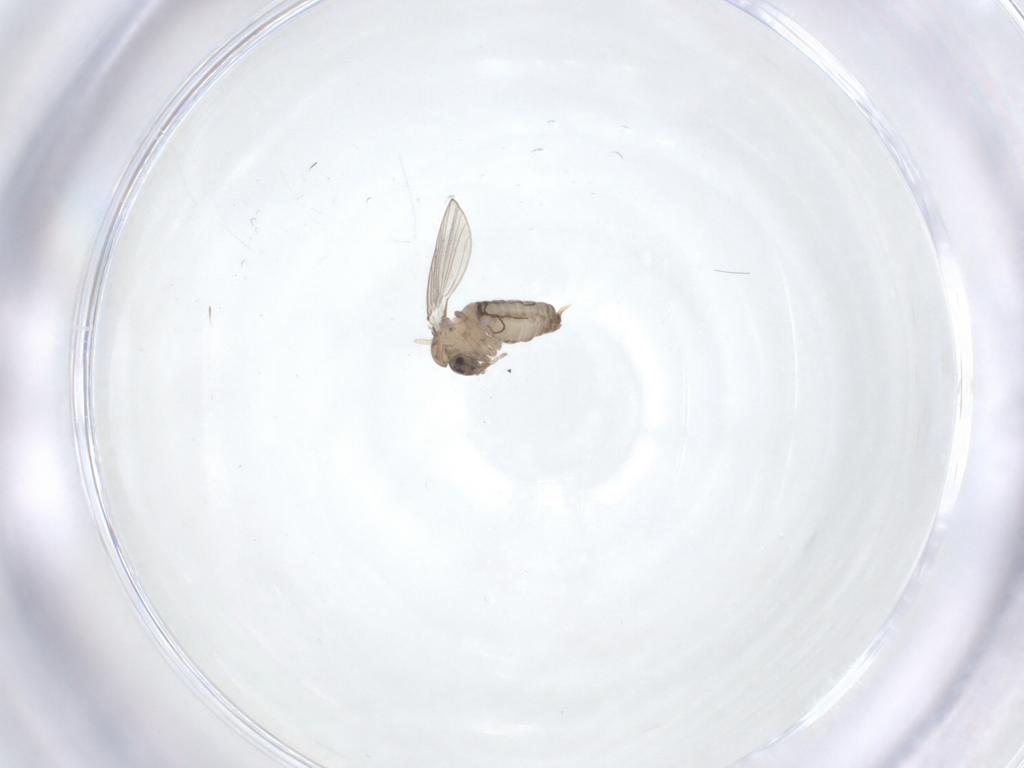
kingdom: Animalia
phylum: Arthropoda
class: Insecta
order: Diptera
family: Psychodidae
